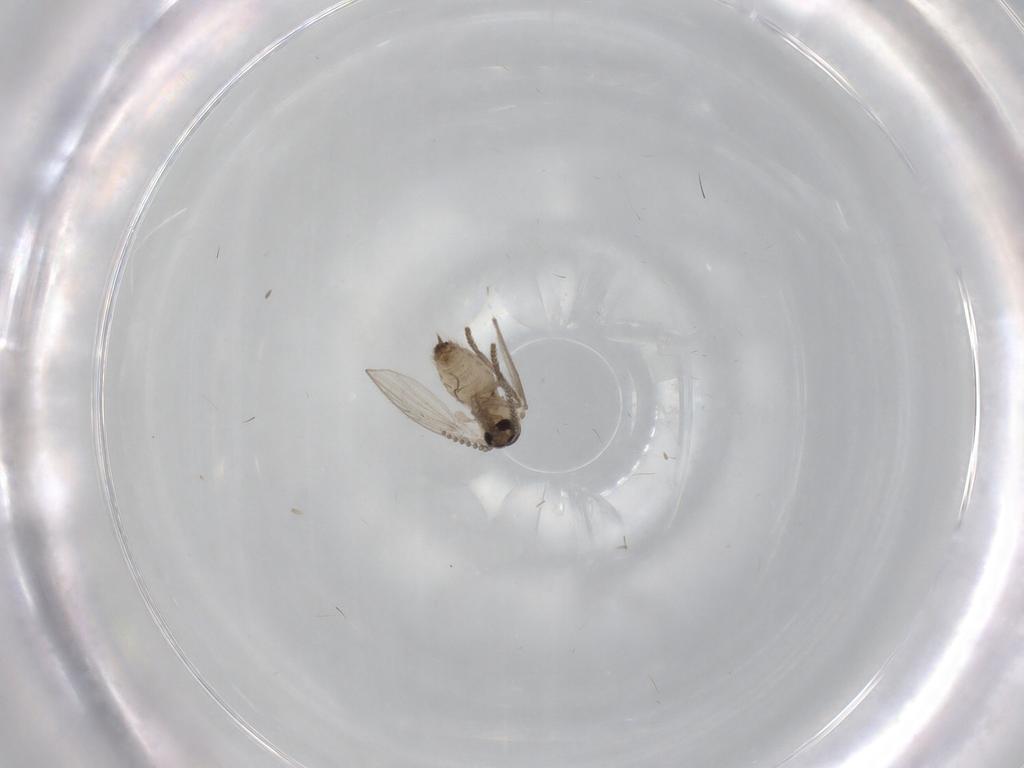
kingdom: Animalia
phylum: Arthropoda
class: Insecta
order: Diptera
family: Psychodidae
